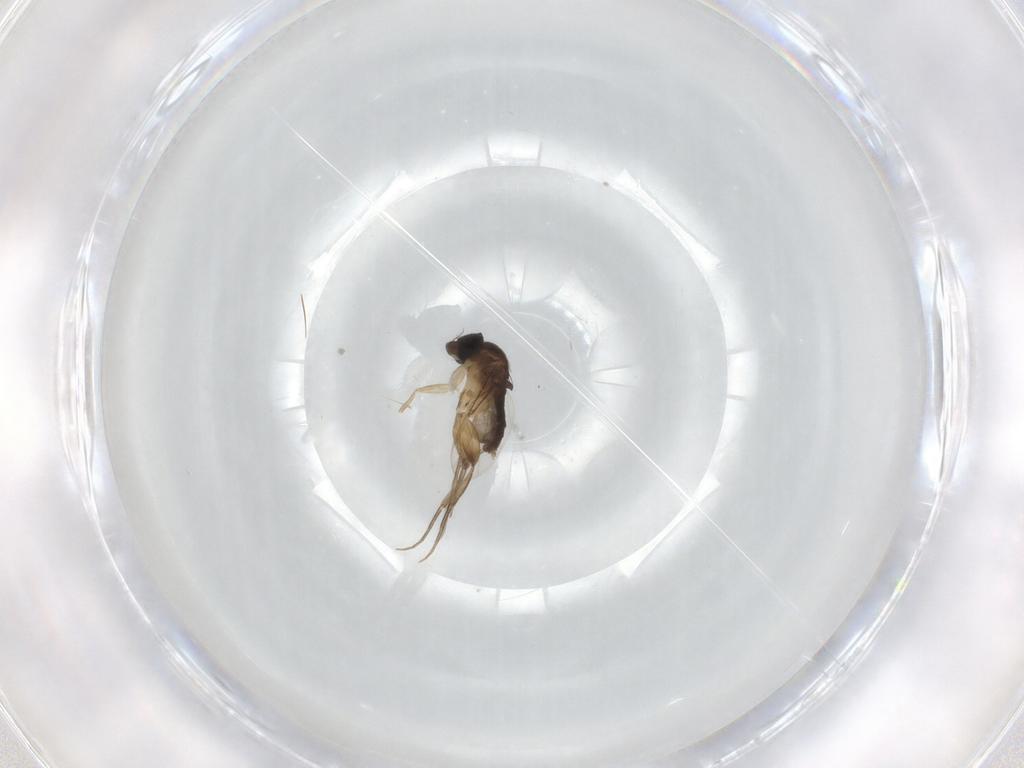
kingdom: Animalia
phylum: Arthropoda
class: Insecta
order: Diptera
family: Phoridae
